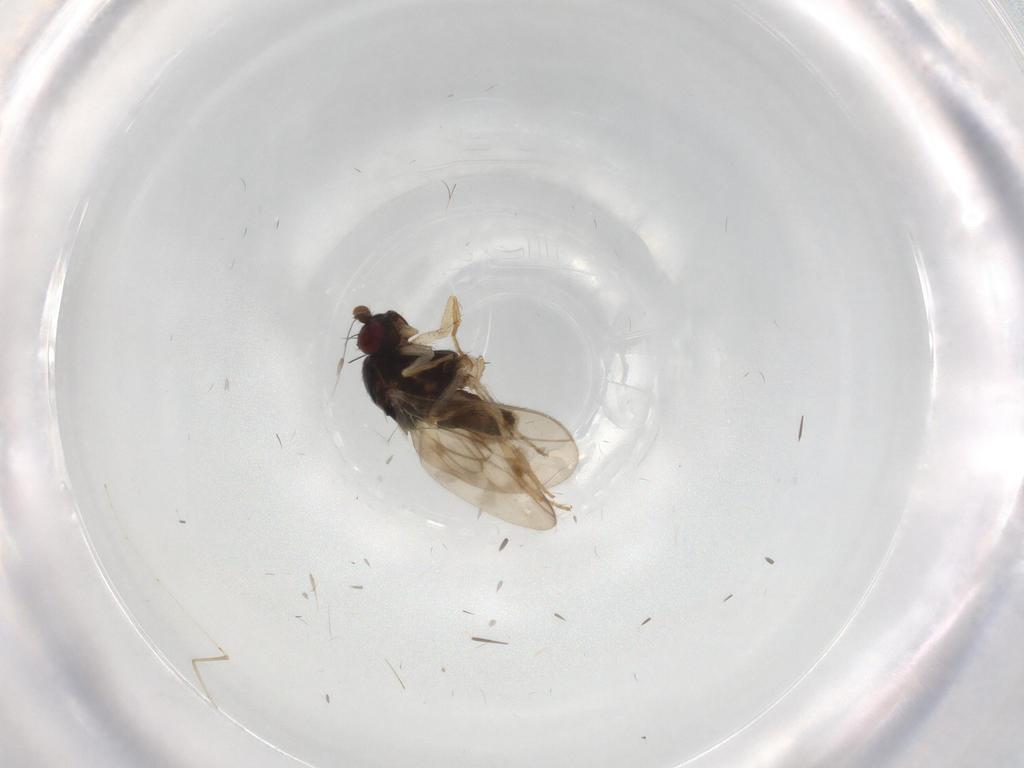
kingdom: Animalia
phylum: Arthropoda
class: Insecta
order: Diptera
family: Sphaeroceridae
